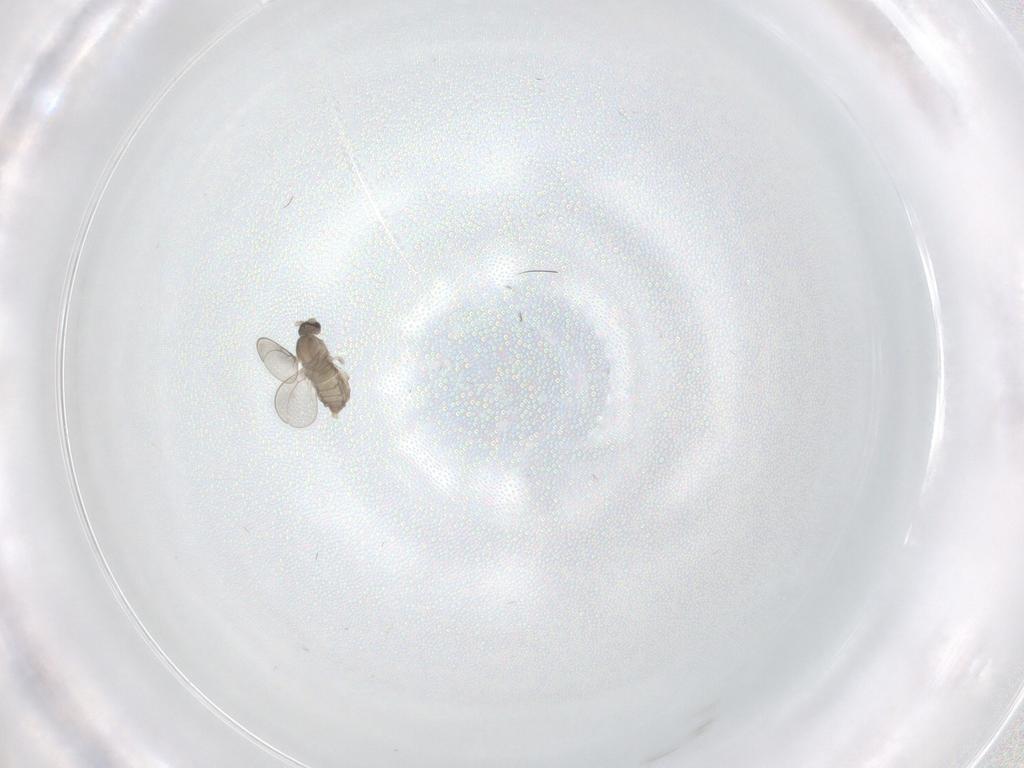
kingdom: Animalia
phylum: Arthropoda
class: Insecta
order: Diptera
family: Cecidomyiidae
